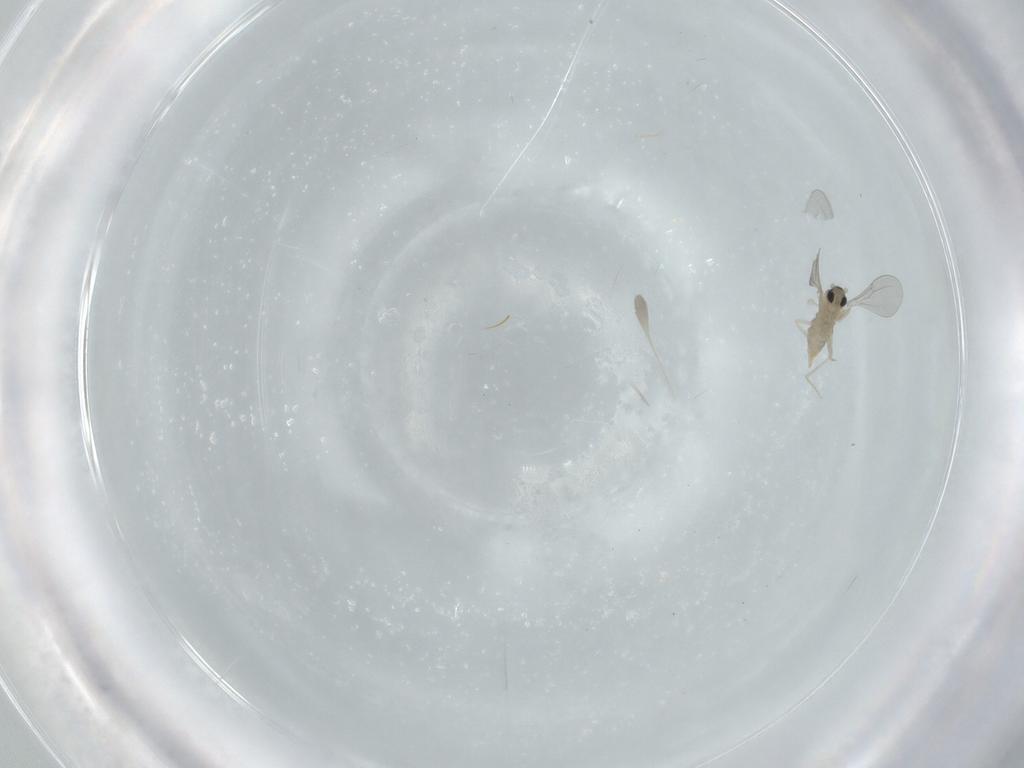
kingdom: Animalia
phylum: Arthropoda
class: Insecta
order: Diptera
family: Cecidomyiidae
